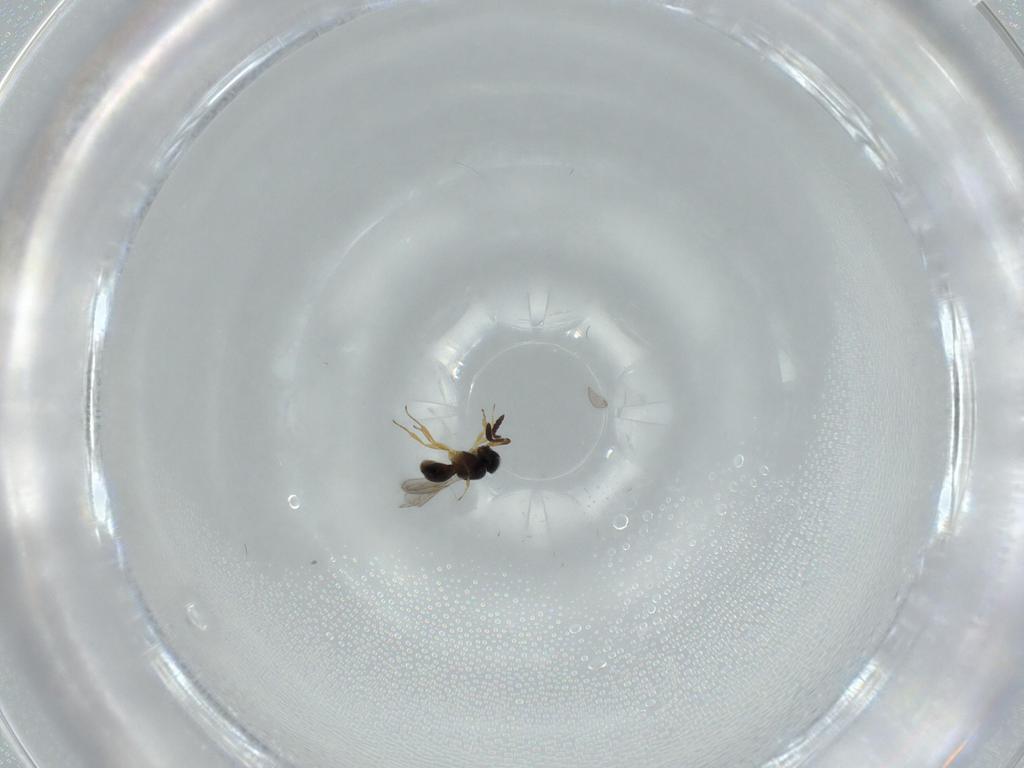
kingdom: Animalia
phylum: Arthropoda
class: Insecta
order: Hymenoptera
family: Scelionidae
